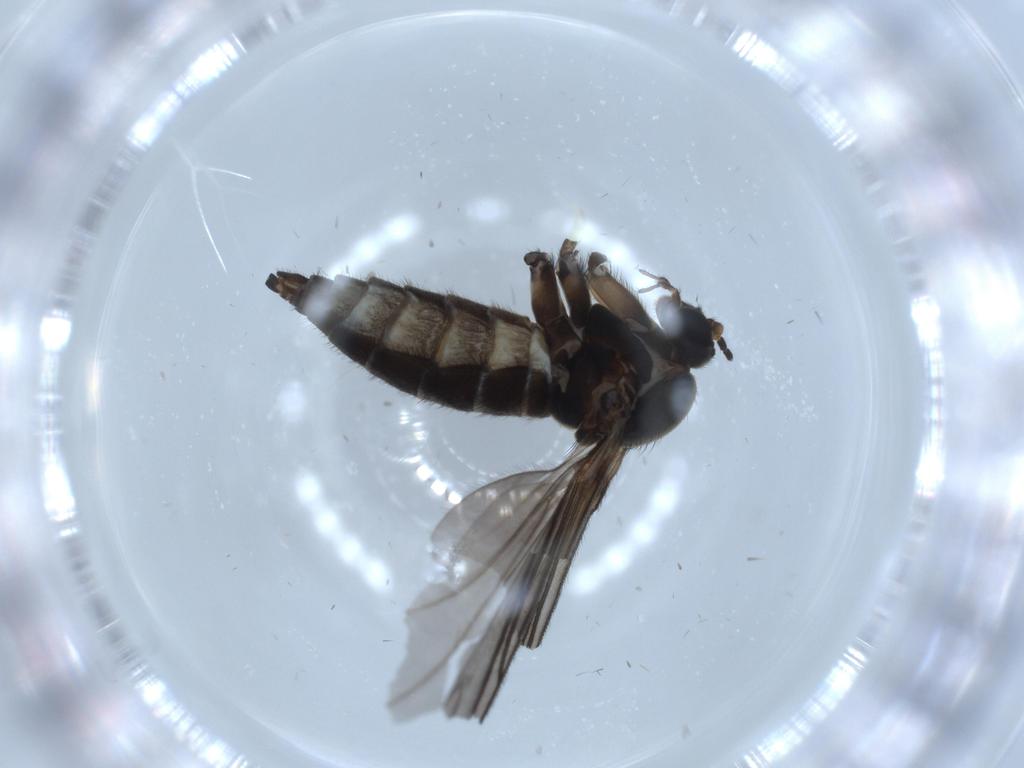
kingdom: Animalia
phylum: Arthropoda
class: Insecta
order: Diptera
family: Sciaridae
